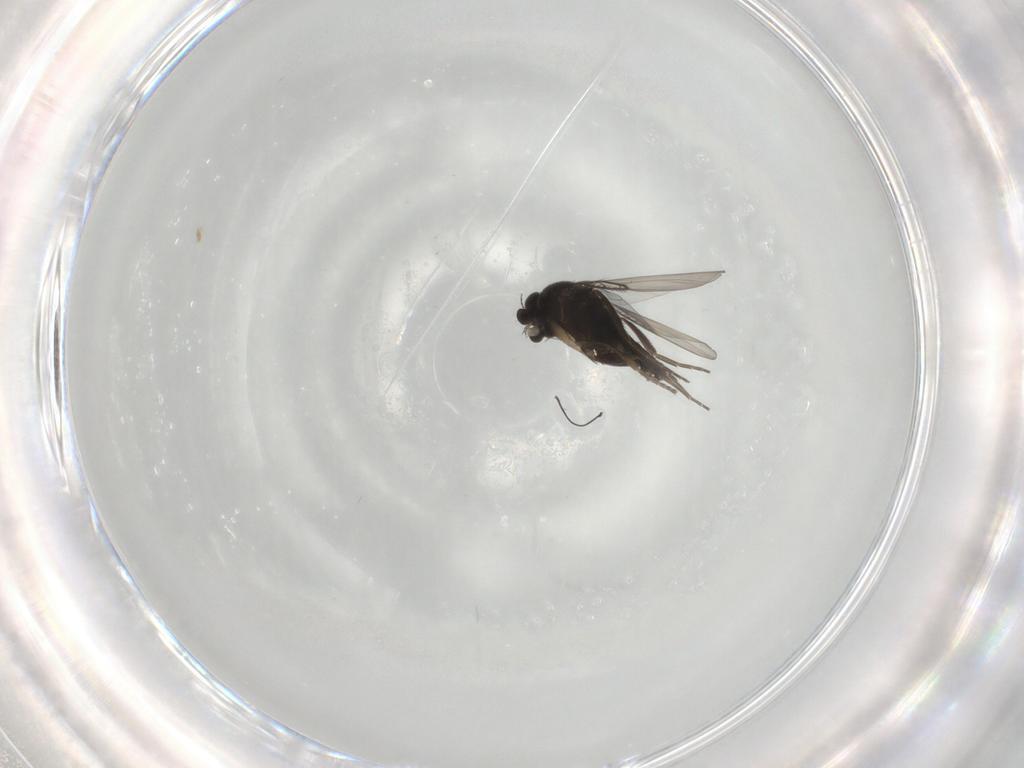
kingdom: Animalia
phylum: Arthropoda
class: Insecta
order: Diptera
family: Phoridae
